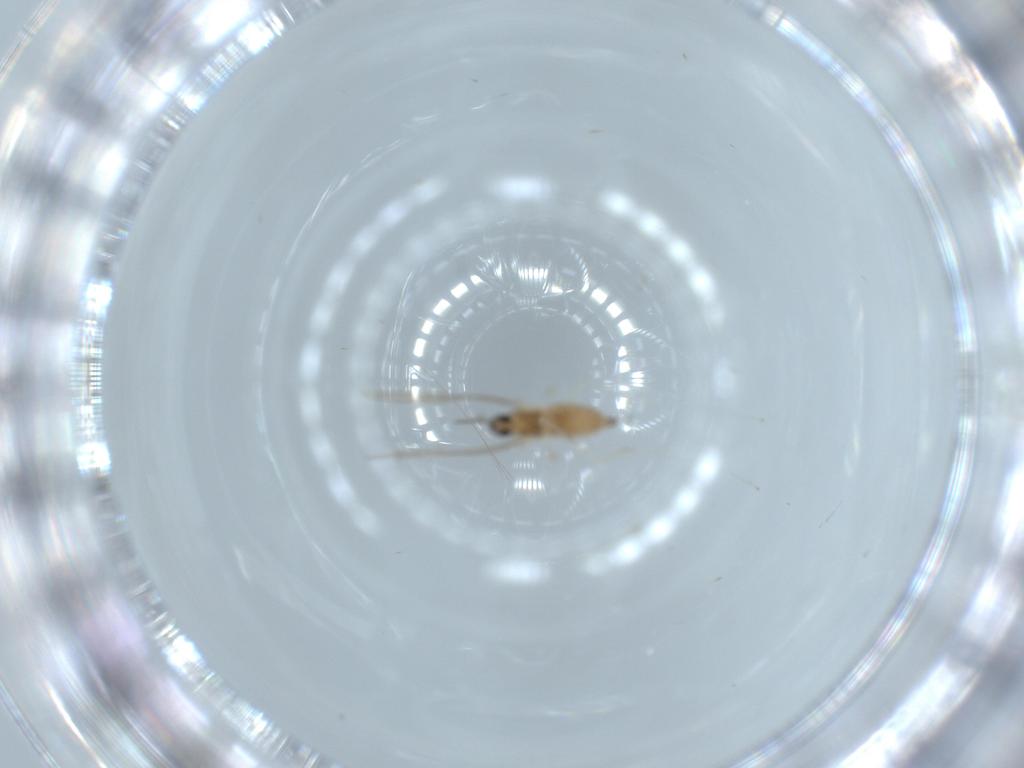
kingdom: Animalia
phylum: Arthropoda
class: Insecta
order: Diptera
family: Cecidomyiidae
